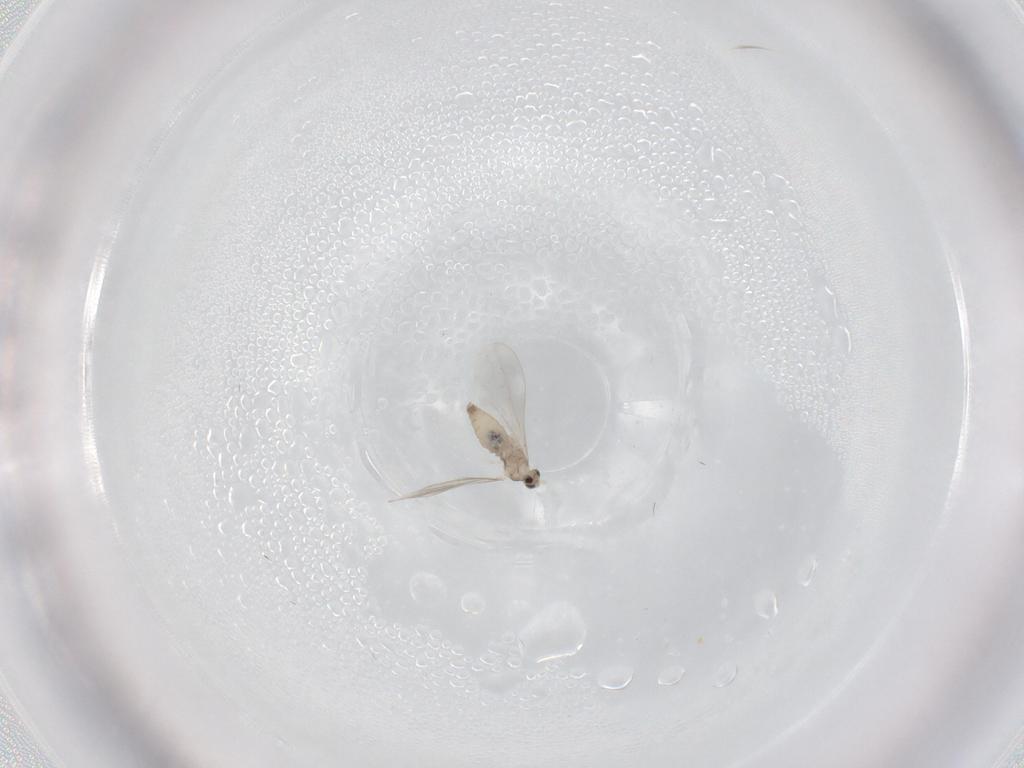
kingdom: Animalia
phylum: Arthropoda
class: Insecta
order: Diptera
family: Cecidomyiidae
